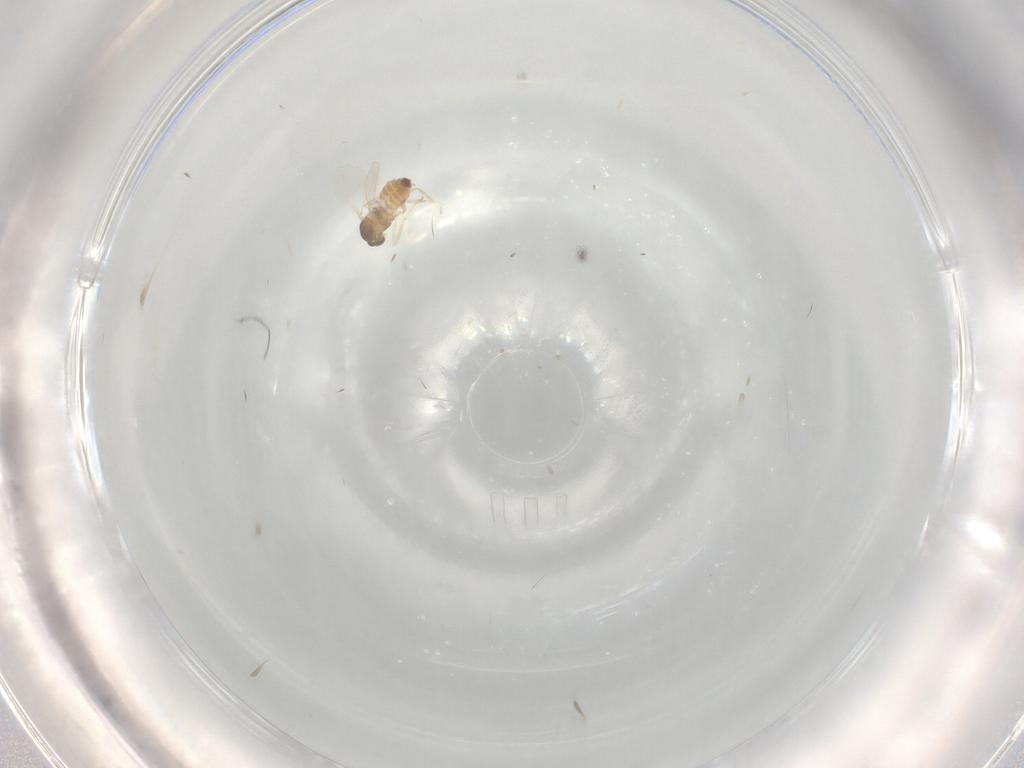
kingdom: Animalia
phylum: Arthropoda
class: Insecta
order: Diptera
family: Cecidomyiidae
